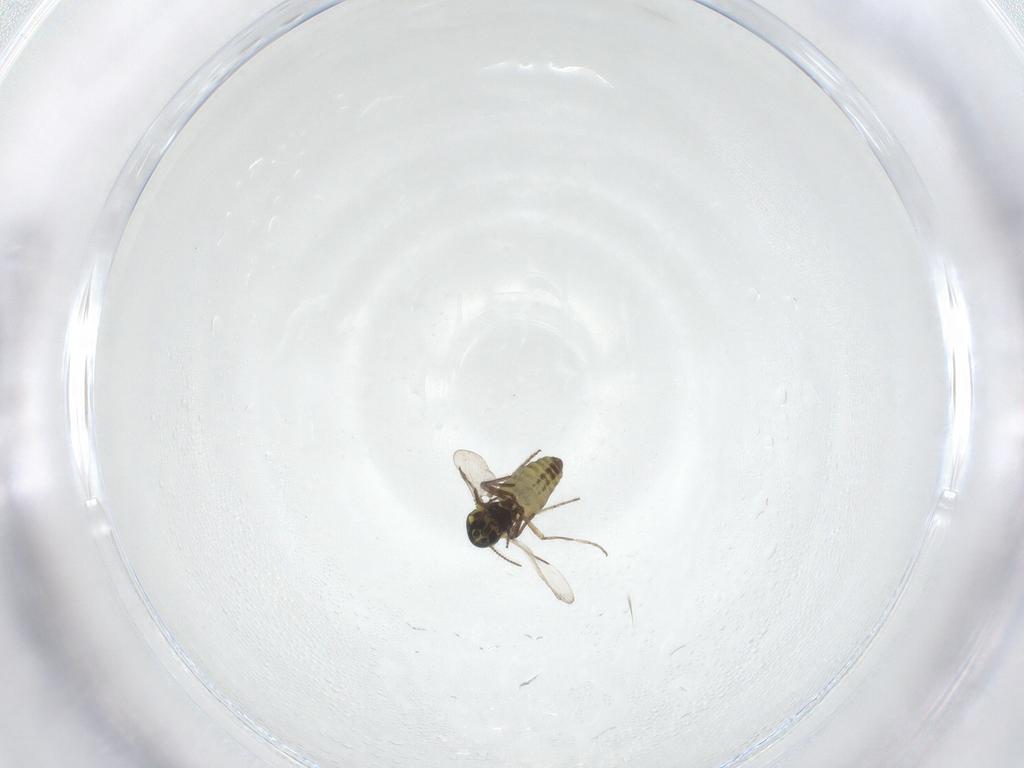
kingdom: Animalia
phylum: Arthropoda
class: Insecta
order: Diptera
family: Ceratopogonidae
